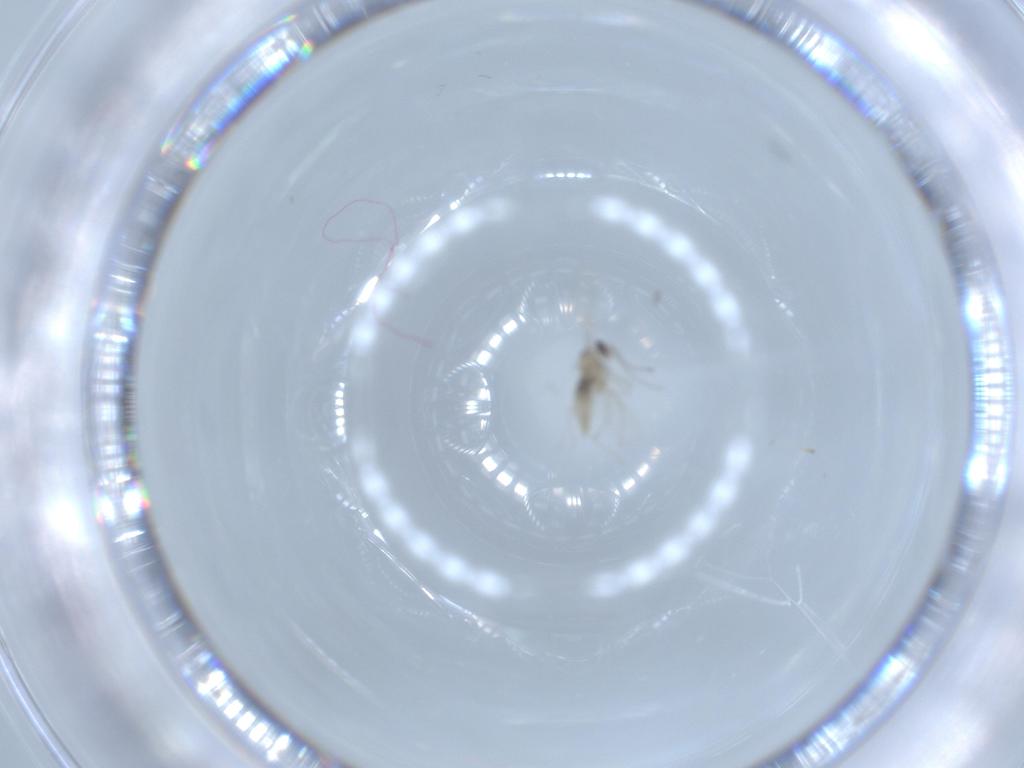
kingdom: Animalia
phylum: Arthropoda
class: Insecta
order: Diptera
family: Cecidomyiidae
